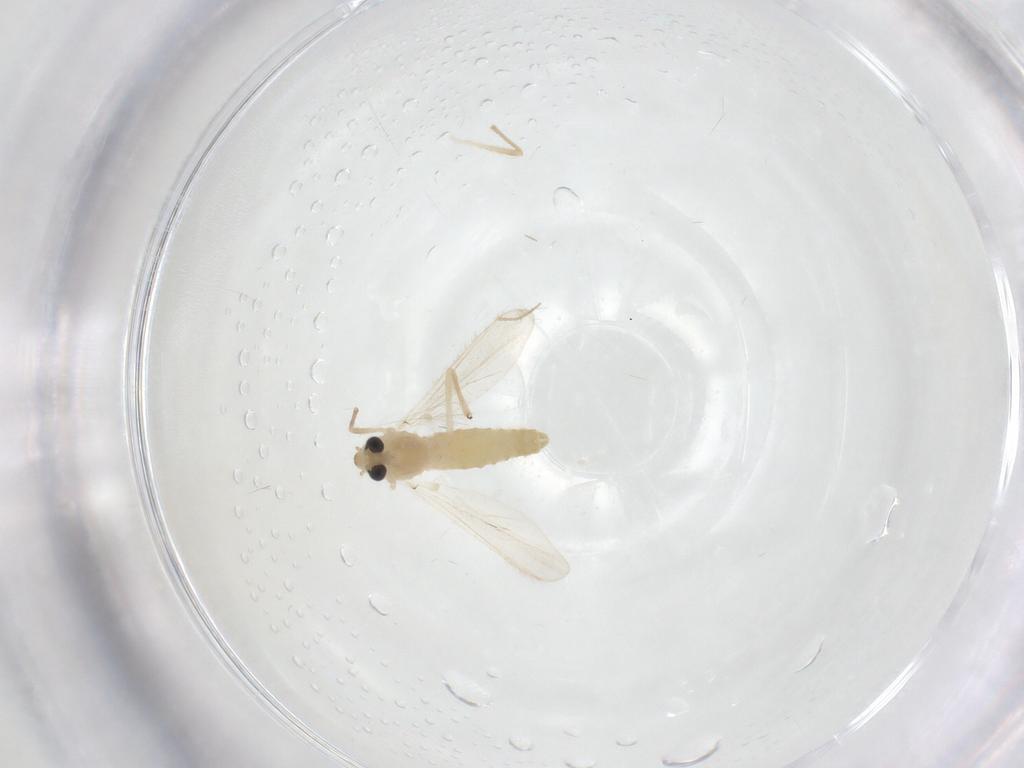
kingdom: Animalia
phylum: Arthropoda
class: Insecta
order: Diptera
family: Chironomidae
